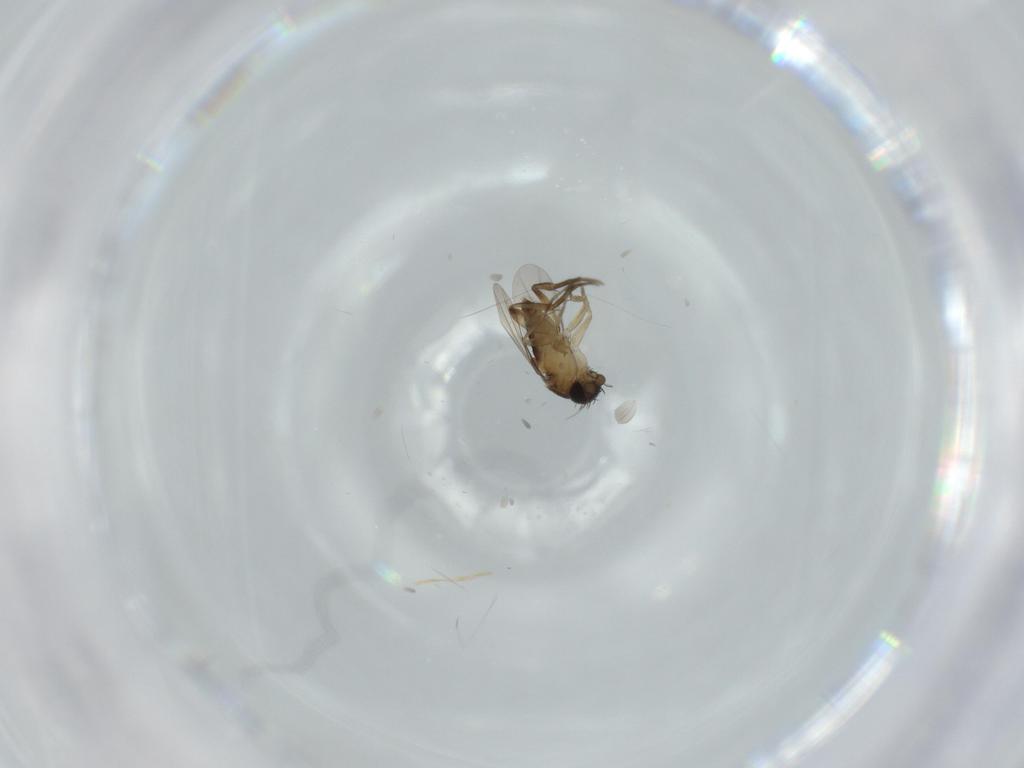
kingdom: Animalia
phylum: Arthropoda
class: Insecta
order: Diptera
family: Phoridae
